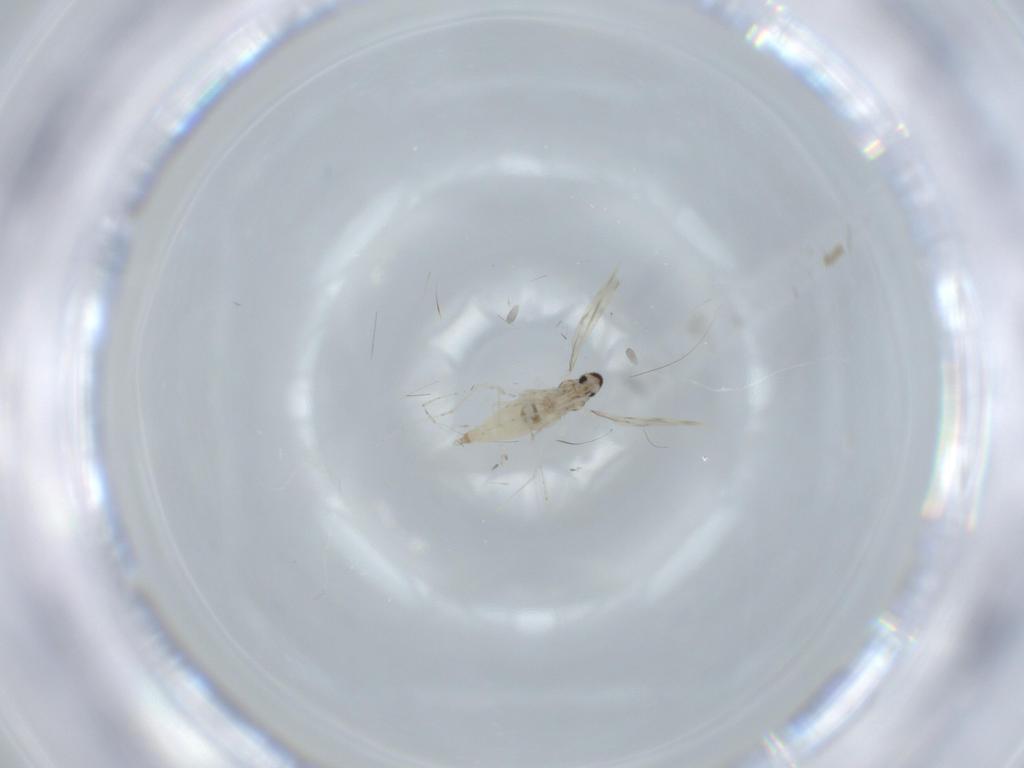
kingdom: Animalia
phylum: Arthropoda
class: Insecta
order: Diptera
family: Cecidomyiidae
